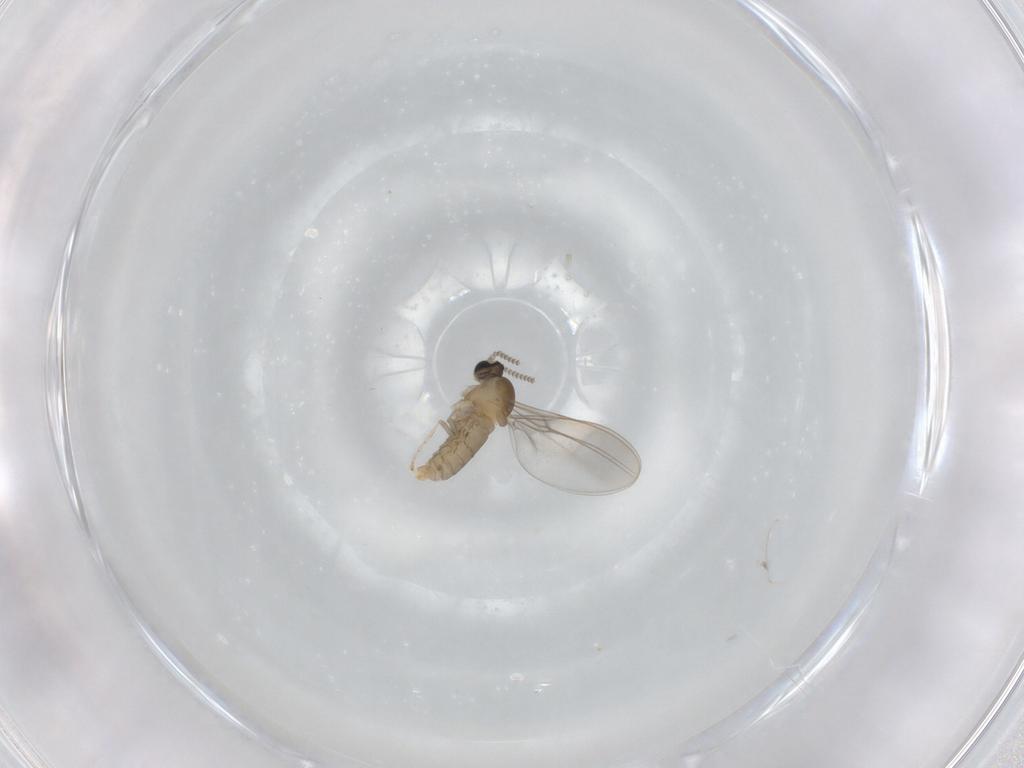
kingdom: Animalia
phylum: Arthropoda
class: Insecta
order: Diptera
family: Cecidomyiidae
